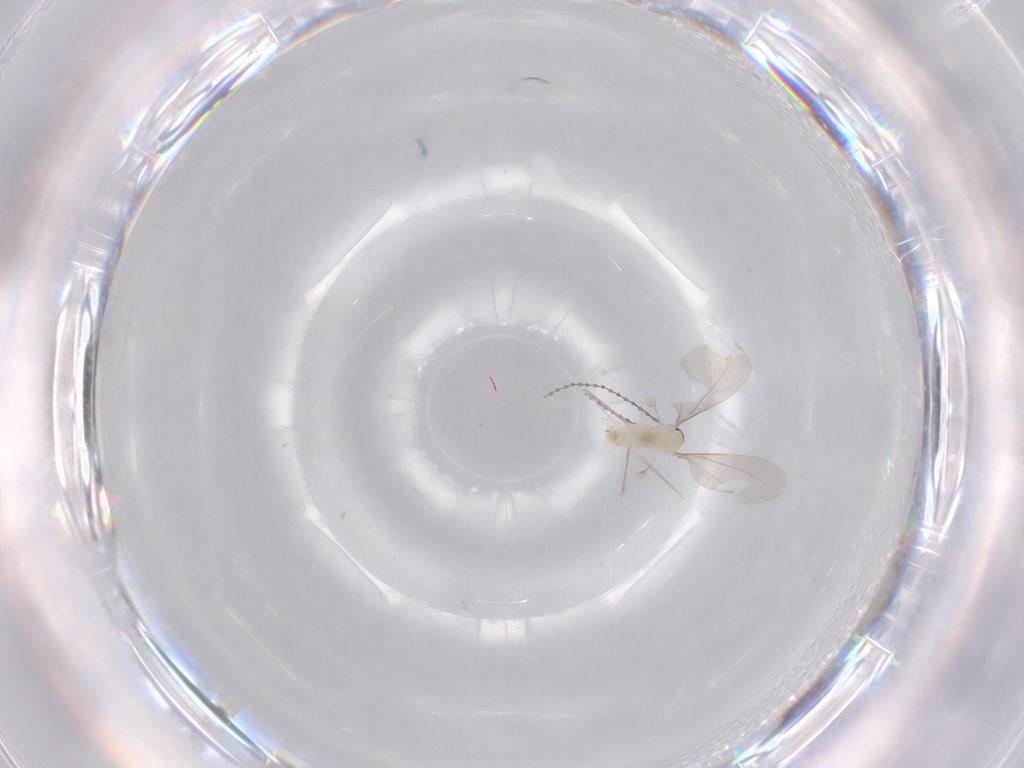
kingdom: Animalia
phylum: Arthropoda
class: Insecta
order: Diptera
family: Cecidomyiidae
